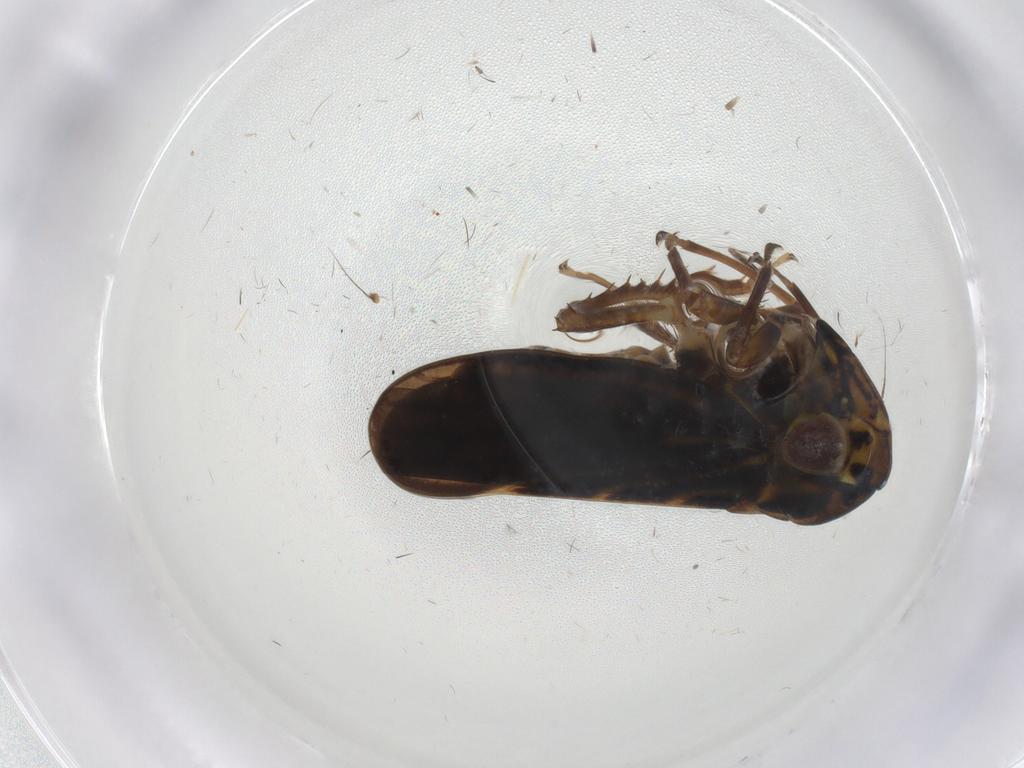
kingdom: Animalia
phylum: Arthropoda
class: Insecta
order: Hemiptera
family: Cicadellidae
